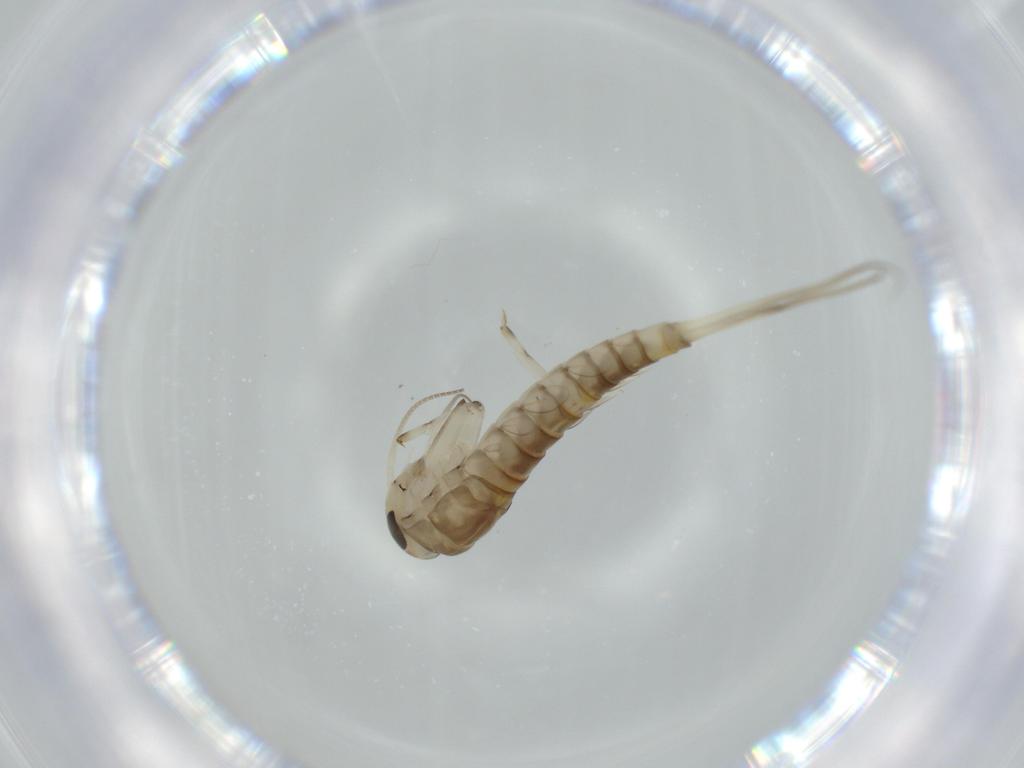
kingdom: Animalia
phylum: Arthropoda
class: Insecta
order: Ephemeroptera
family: Baetidae
